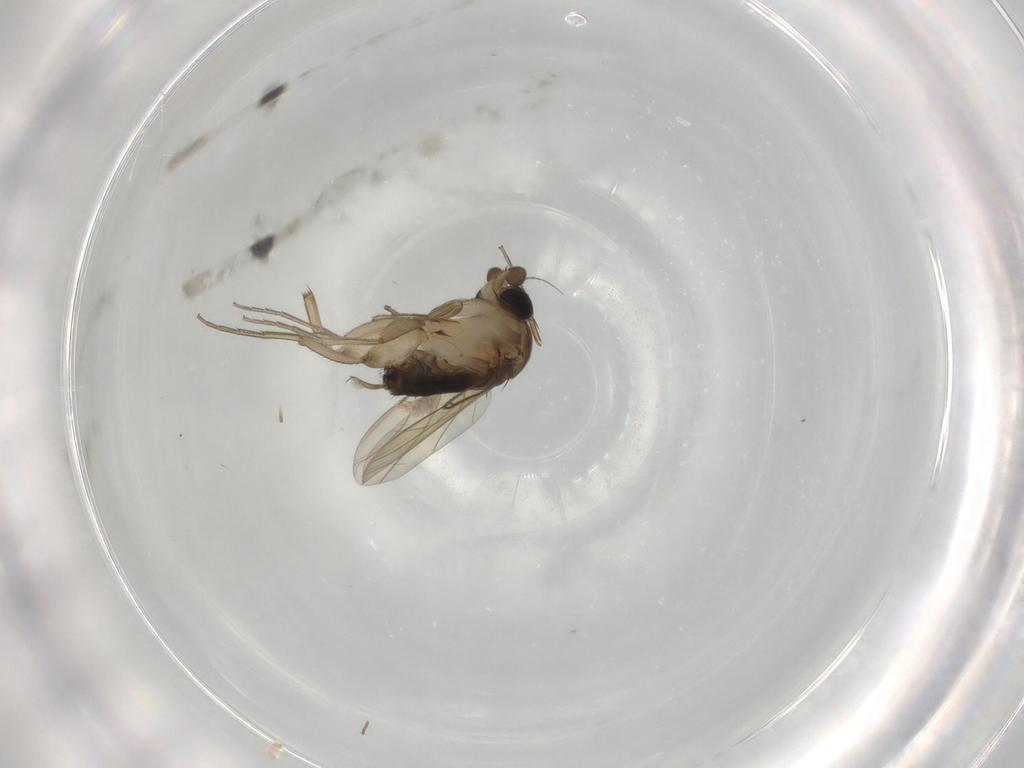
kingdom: Animalia
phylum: Arthropoda
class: Insecta
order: Diptera
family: Phoridae
